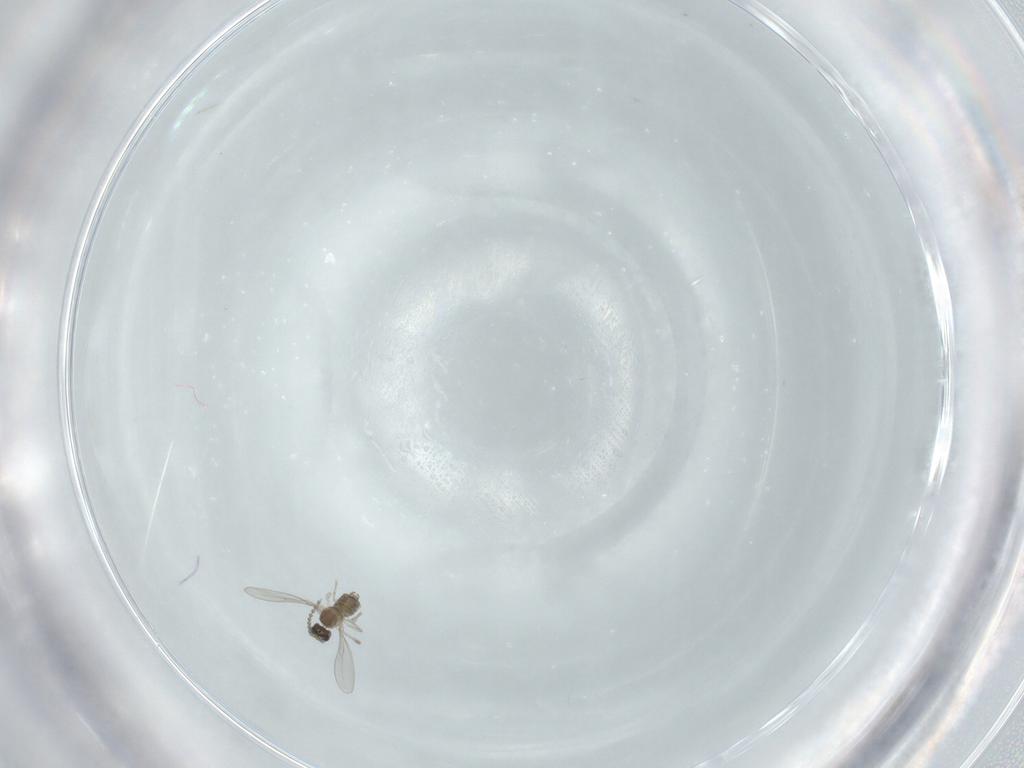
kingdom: Animalia
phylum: Arthropoda
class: Insecta
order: Diptera
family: Cecidomyiidae
